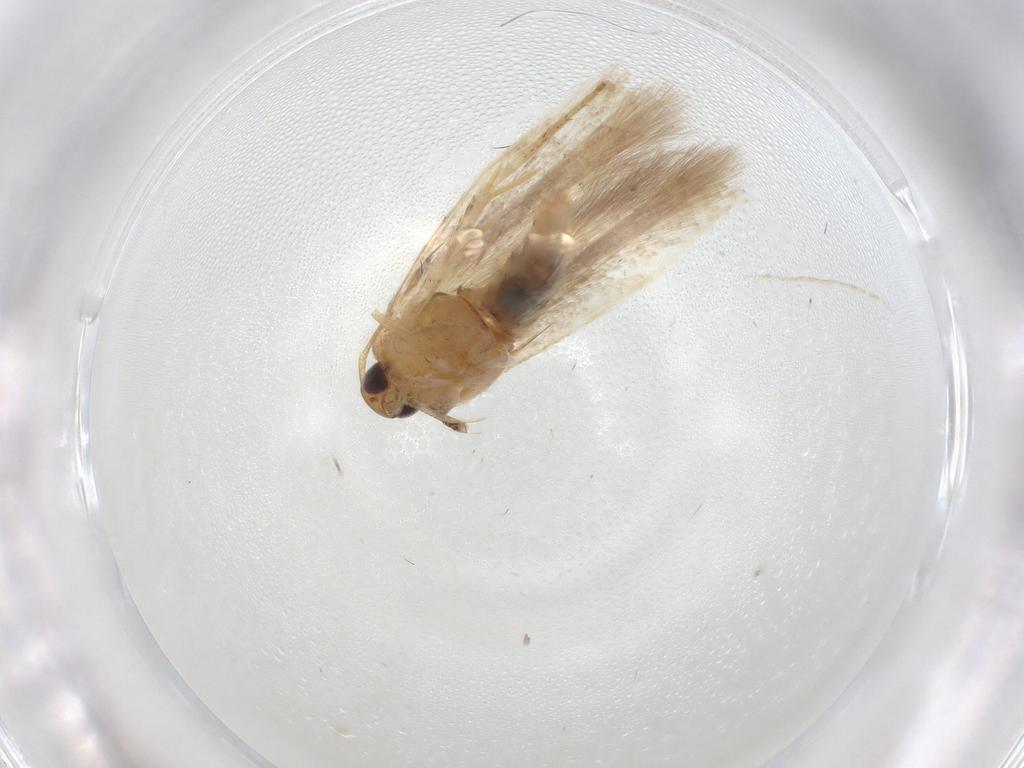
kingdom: Animalia
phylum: Arthropoda
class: Insecta
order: Lepidoptera
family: Gelechiidae
